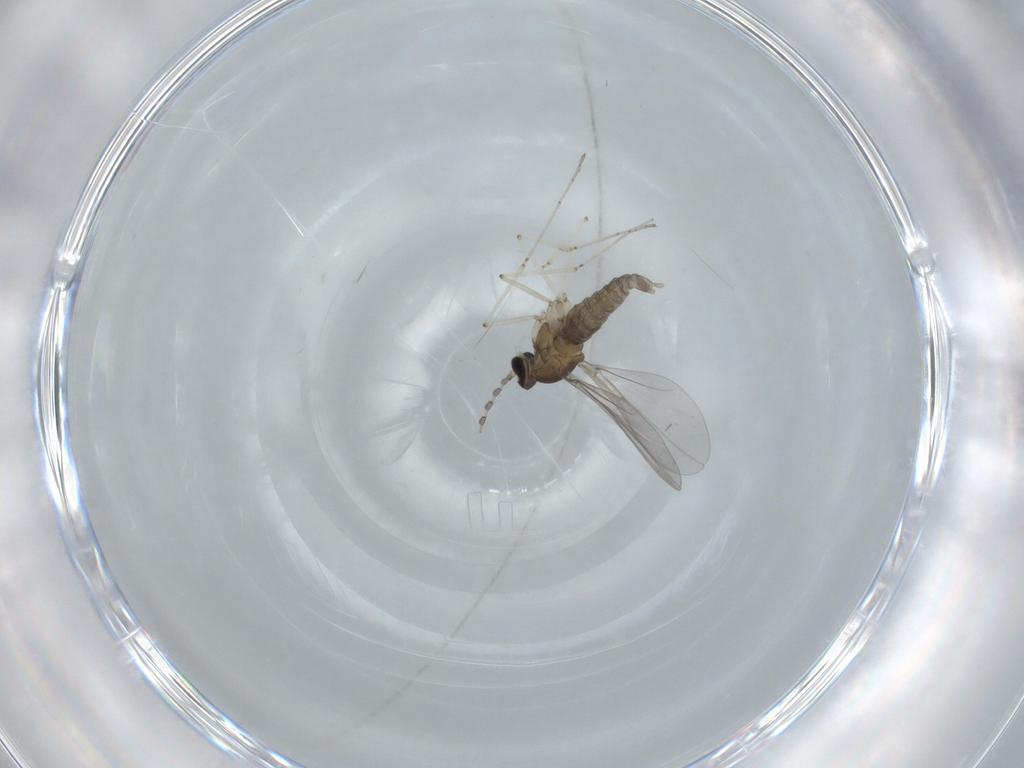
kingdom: Animalia
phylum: Arthropoda
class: Insecta
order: Diptera
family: Cecidomyiidae
